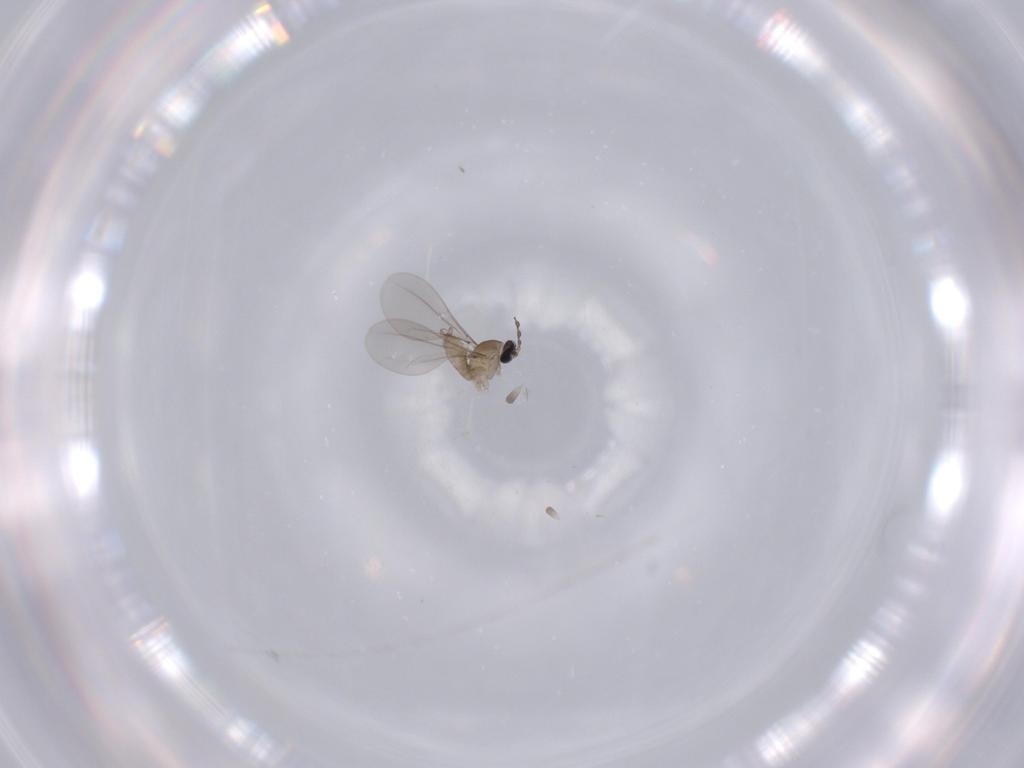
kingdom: Animalia
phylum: Arthropoda
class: Insecta
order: Diptera
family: Sphaeroceridae
